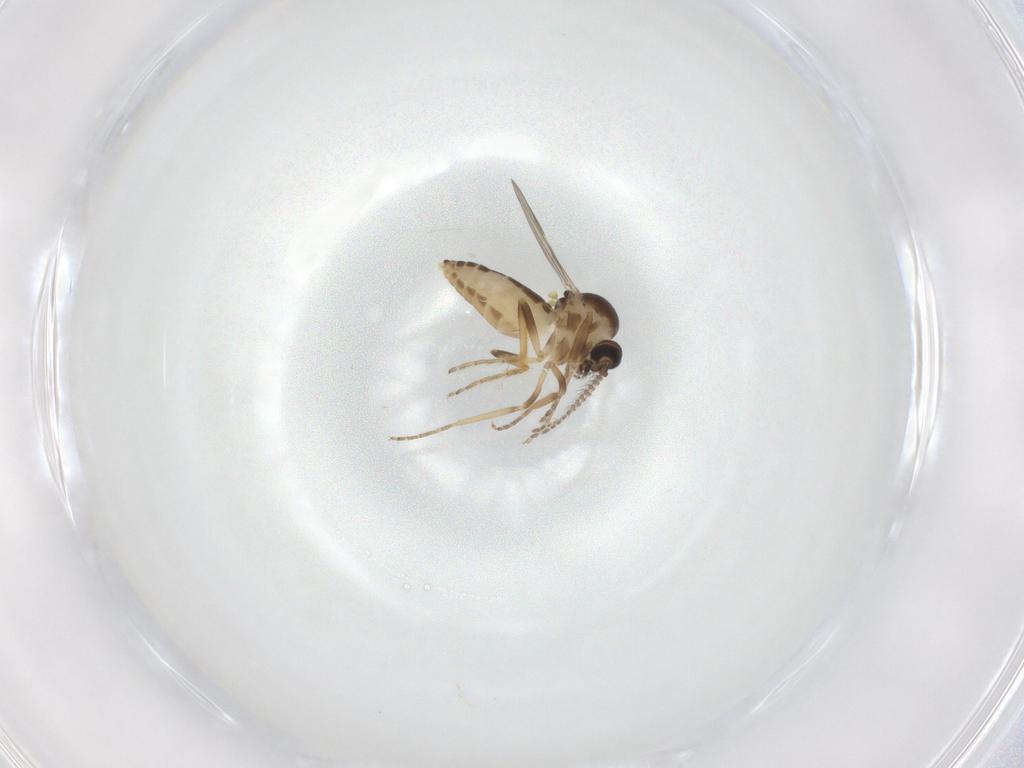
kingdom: Animalia
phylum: Arthropoda
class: Insecta
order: Diptera
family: Ceratopogonidae
